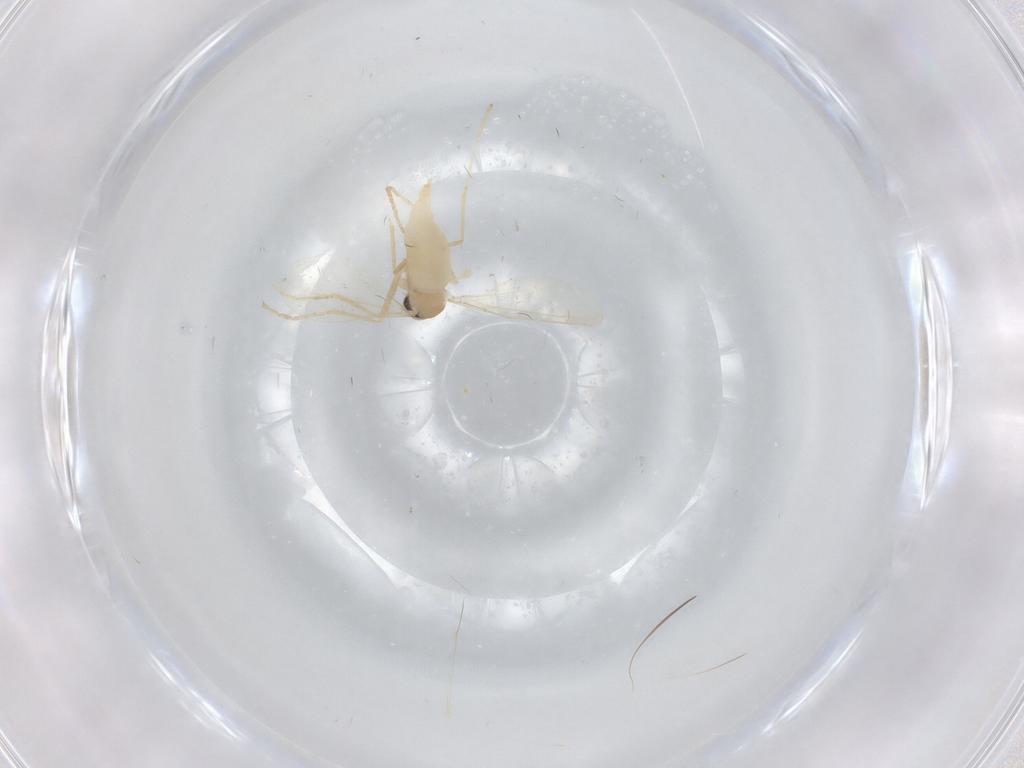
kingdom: Animalia
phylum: Arthropoda
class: Insecta
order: Diptera
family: Cecidomyiidae
